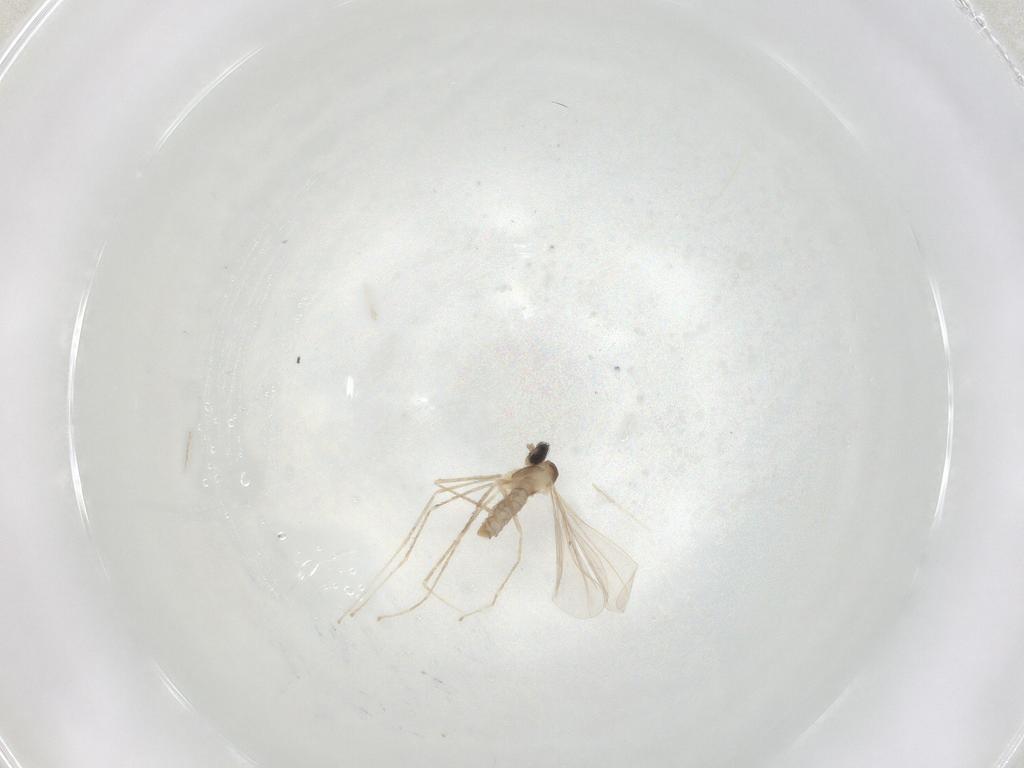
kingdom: Animalia
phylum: Arthropoda
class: Insecta
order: Diptera
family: Cecidomyiidae
